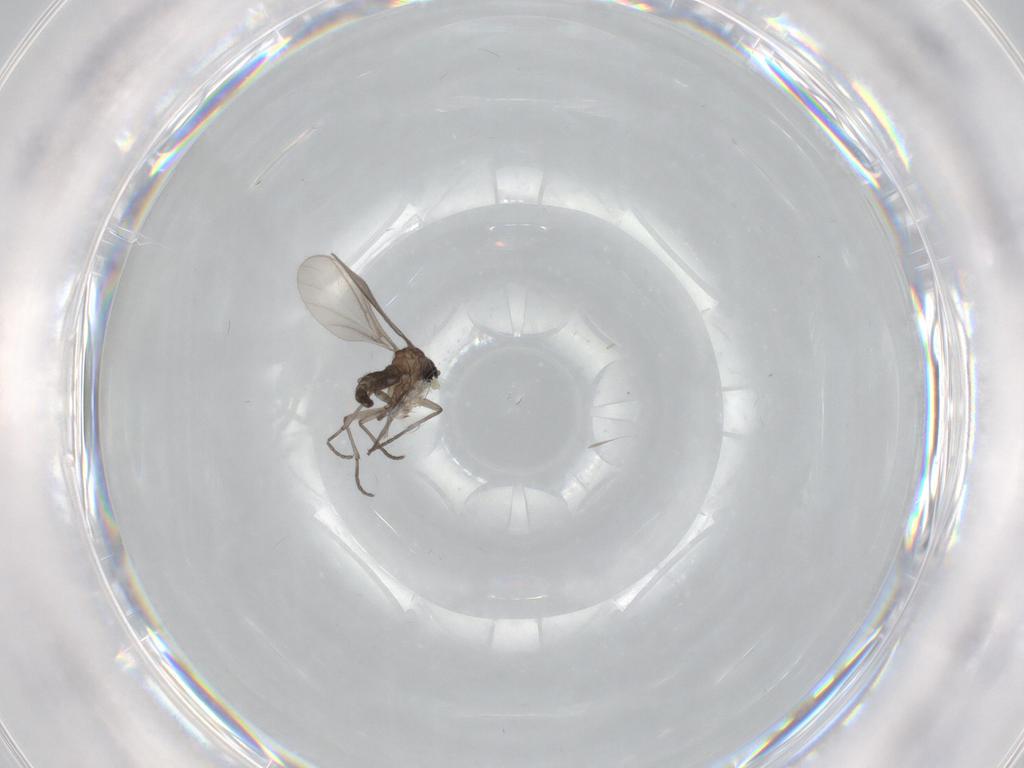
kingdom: Animalia
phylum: Arthropoda
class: Insecta
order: Diptera
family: Sciaridae
